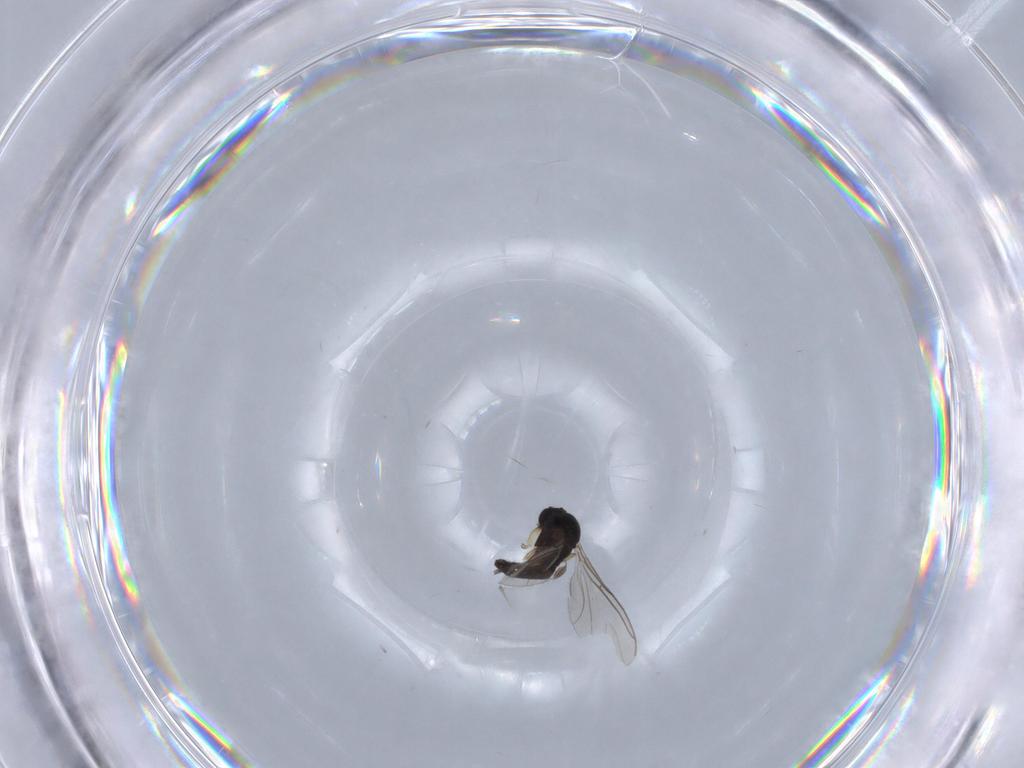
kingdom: Animalia
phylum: Arthropoda
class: Insecta
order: Diptera
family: Sciaridae
